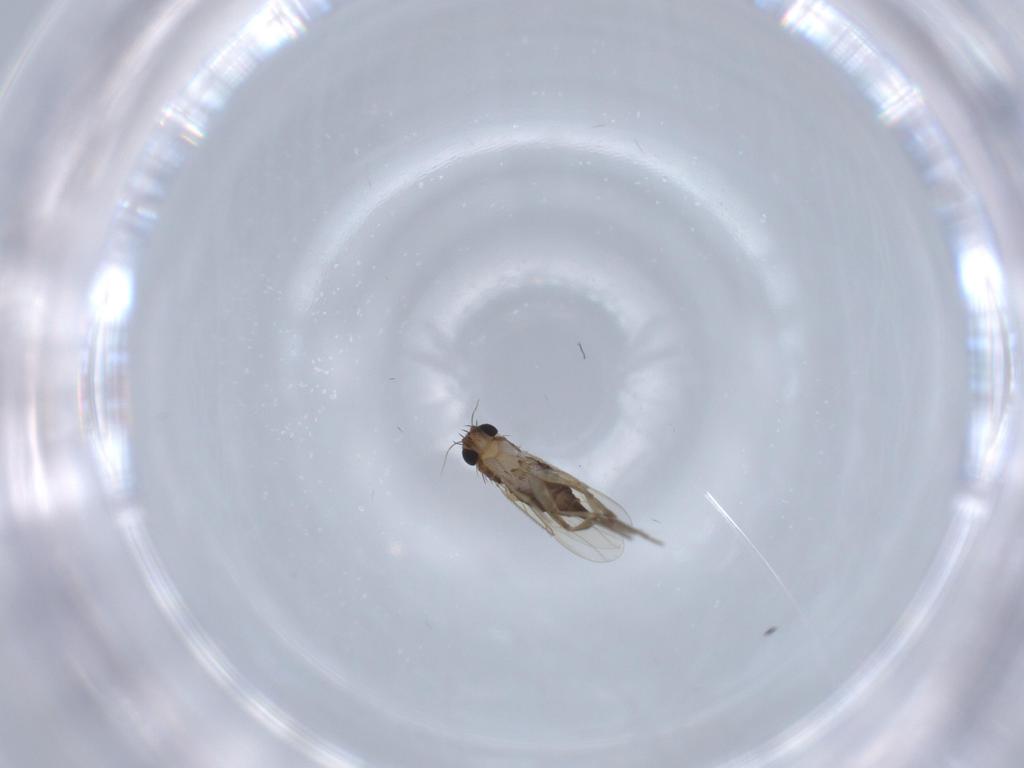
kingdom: Animalia
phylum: Arthropoda
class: Insecta
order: Diptera
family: Phoridae
